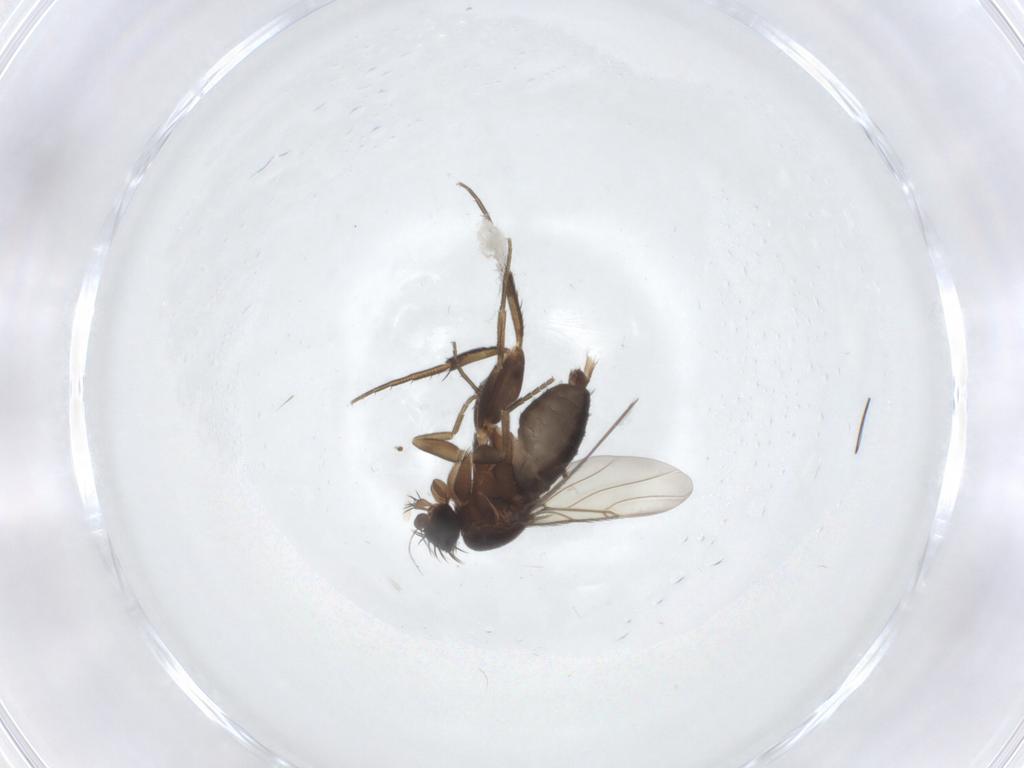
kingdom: Animalia
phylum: Arthropoda
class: Insecta
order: Diptera
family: Phoridae
